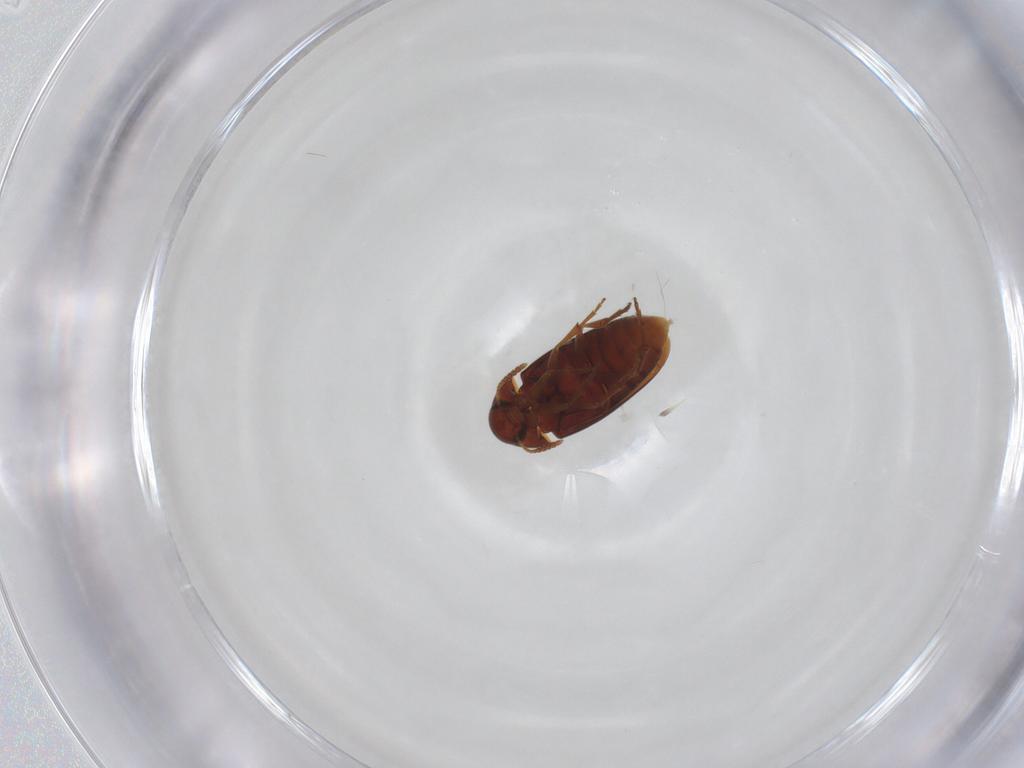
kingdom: Animalia
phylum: Arthropoda
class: Insecta
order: Coleoptera
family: Scraptiidae
